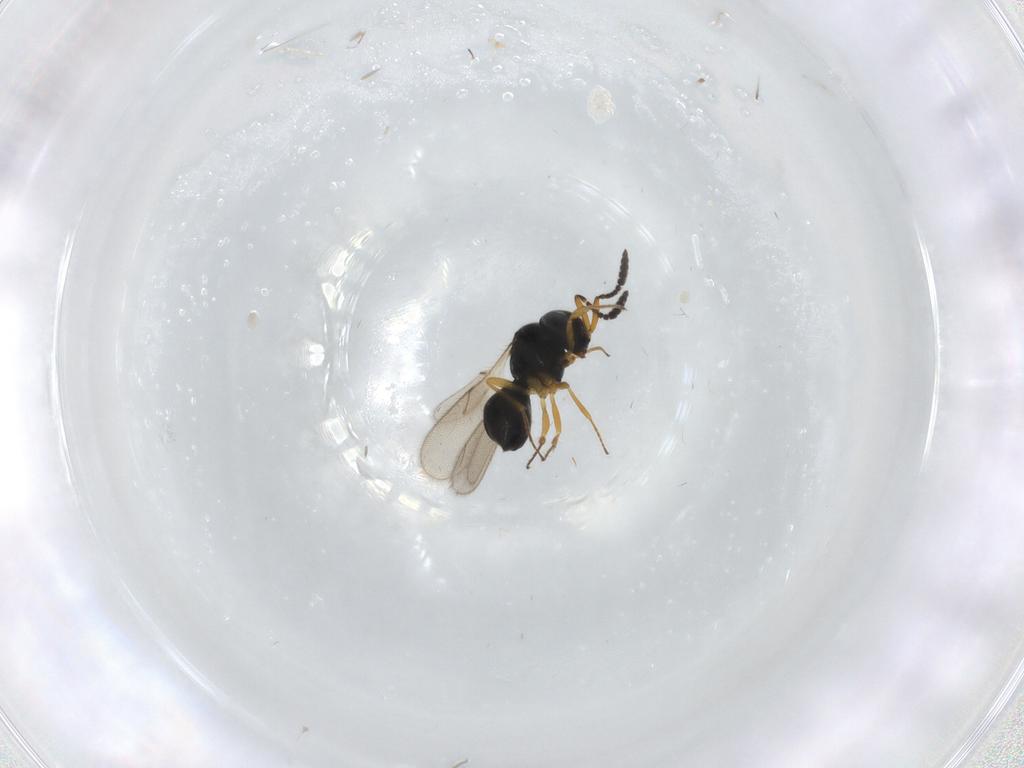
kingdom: Animalia
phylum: Arthropoda
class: Insecta
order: Hymenoptera
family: Scelionidae
